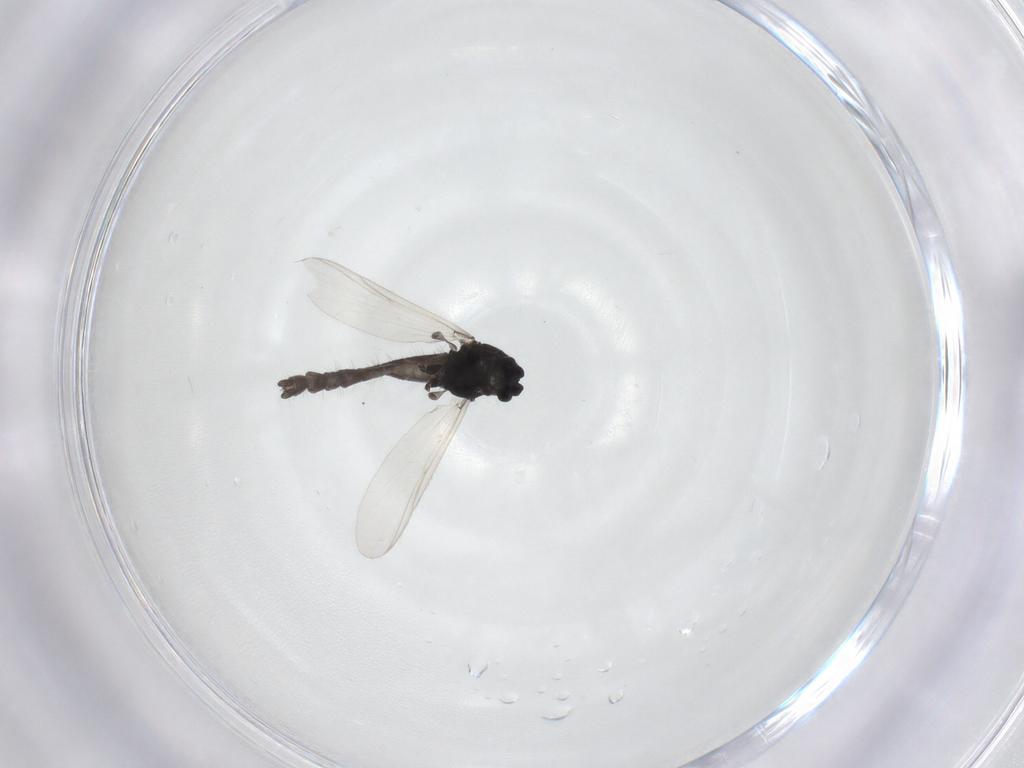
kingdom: Animalia
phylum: Arthropoda
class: Insecta
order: Diptera
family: Chironomidae
